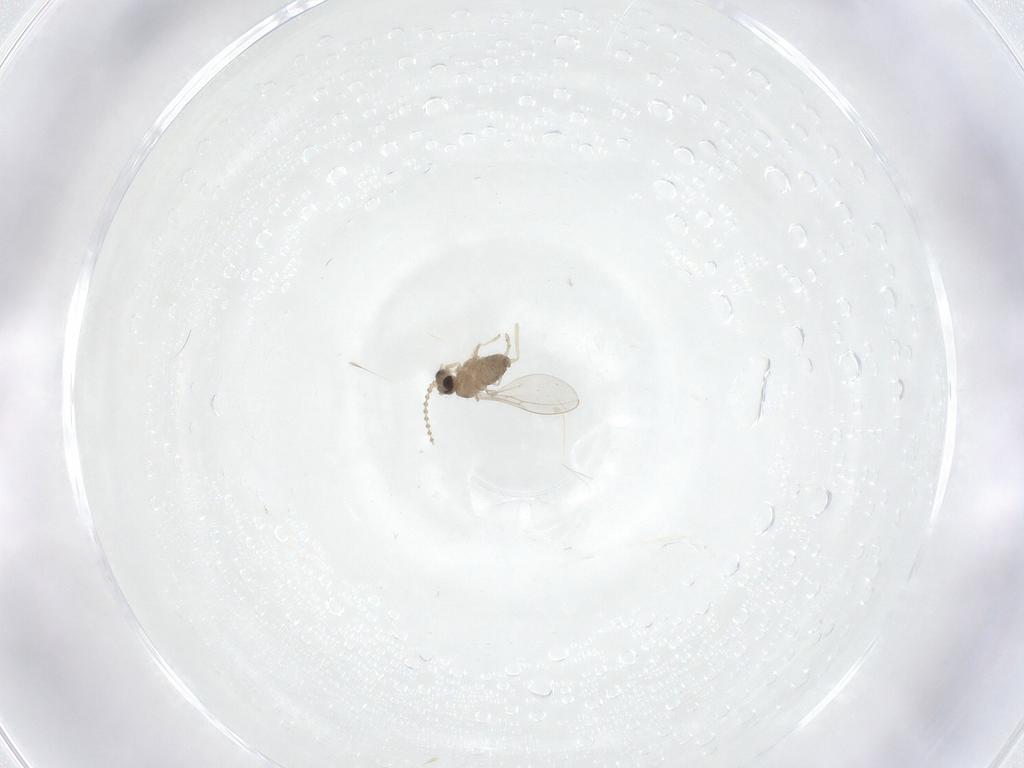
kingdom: Animalia
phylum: Arthropoda
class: Insecta
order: Diptera
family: Cecidomyiidae
